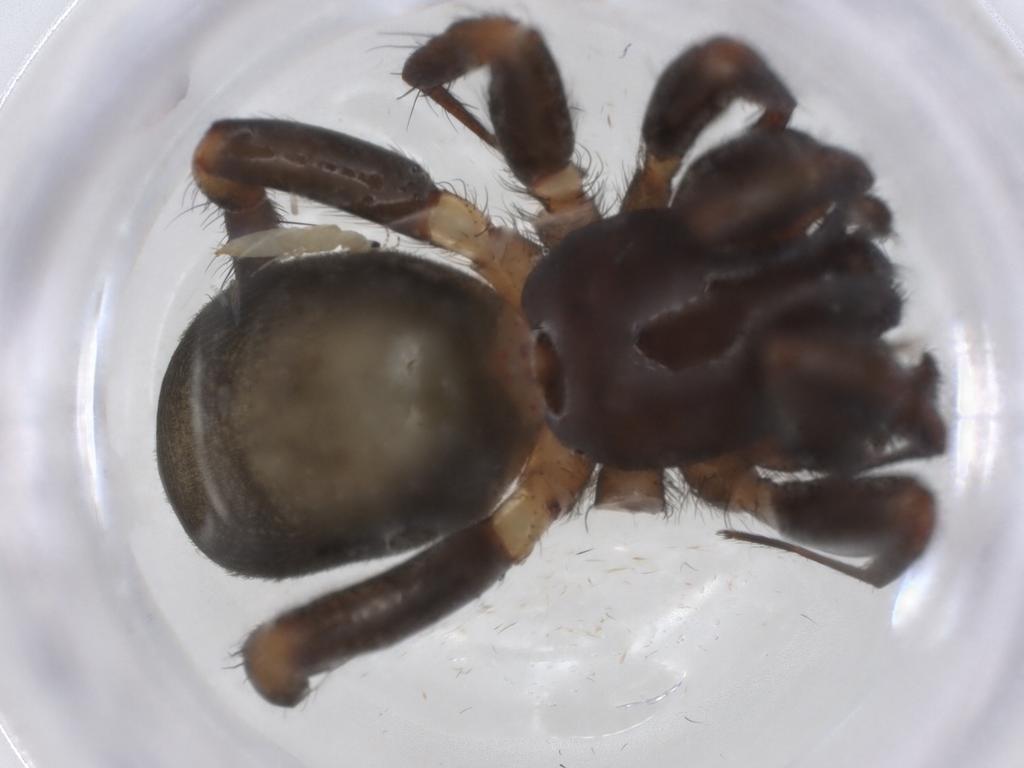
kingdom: Animalia
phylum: Arthropoda
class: Arachnida
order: Araneae
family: Gnaphosidae
